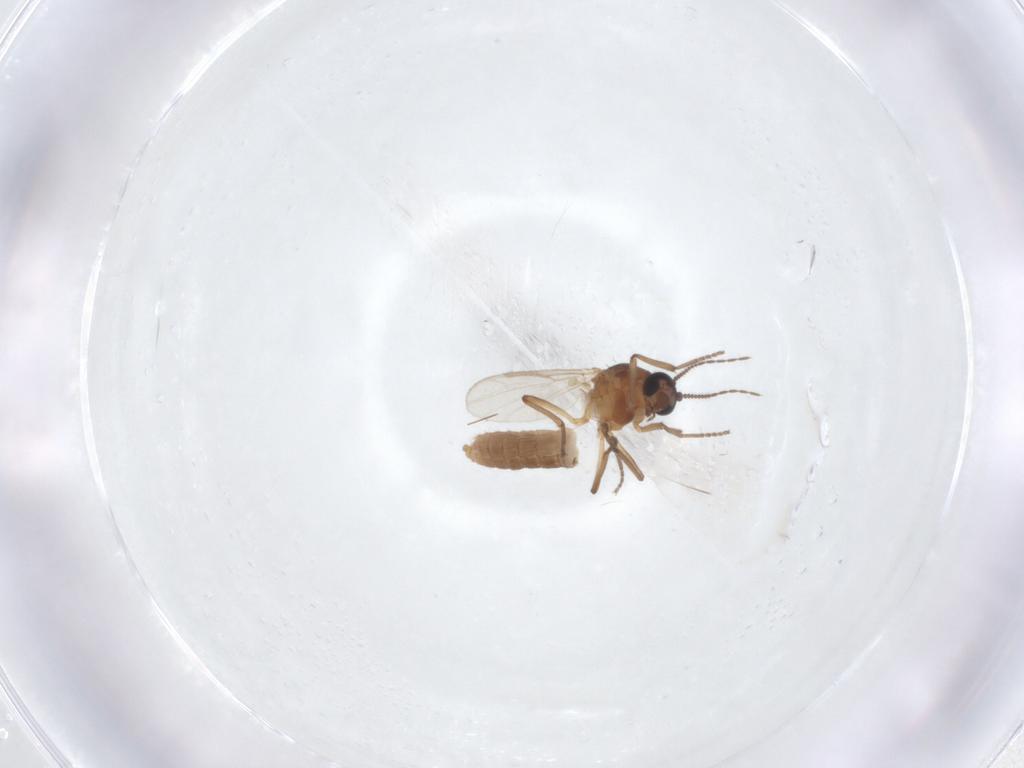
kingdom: Animalia
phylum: Arthropoda
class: Insecta
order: Diptera
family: Ceratopogonidae
